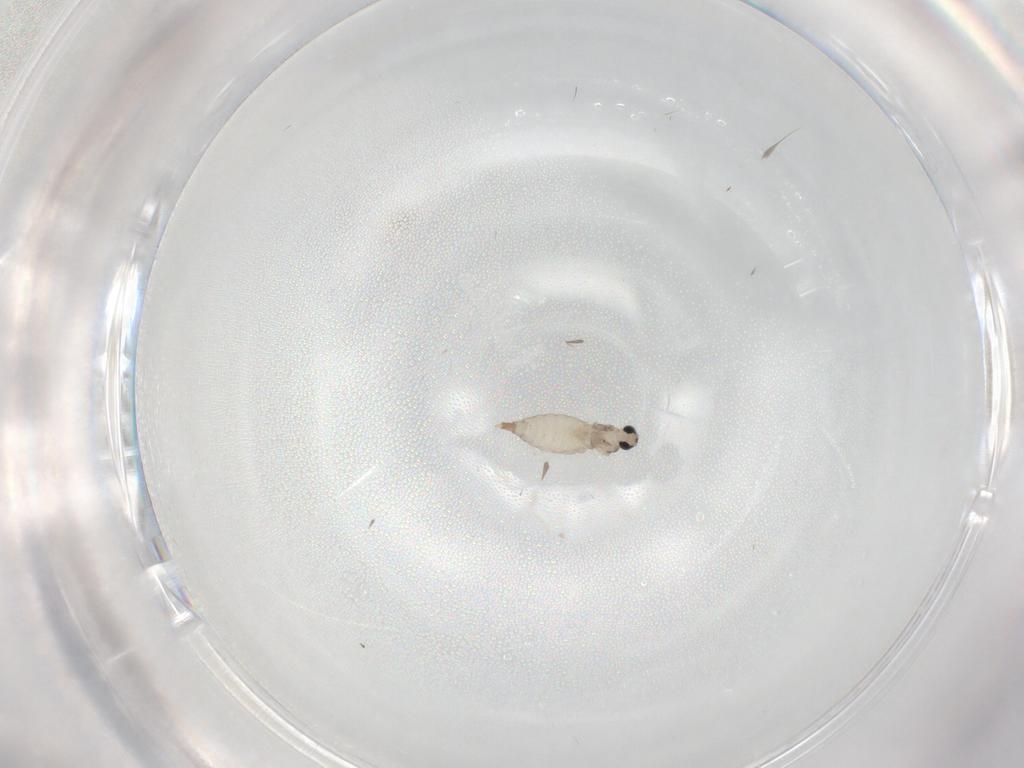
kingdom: Animalia
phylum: Arthropoda
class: Insecta
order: Diptera
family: Cecidomyiidae
